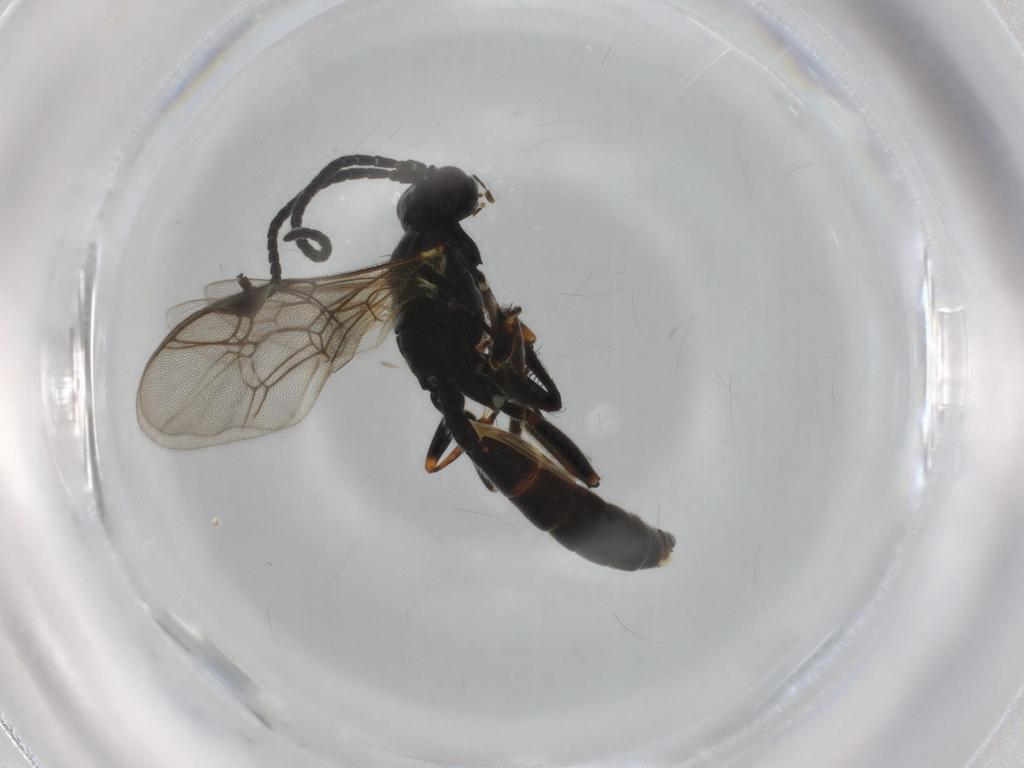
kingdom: Animalia
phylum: Arthropoda
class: Insecta
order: Hymenoptera
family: Ichneumonidae
